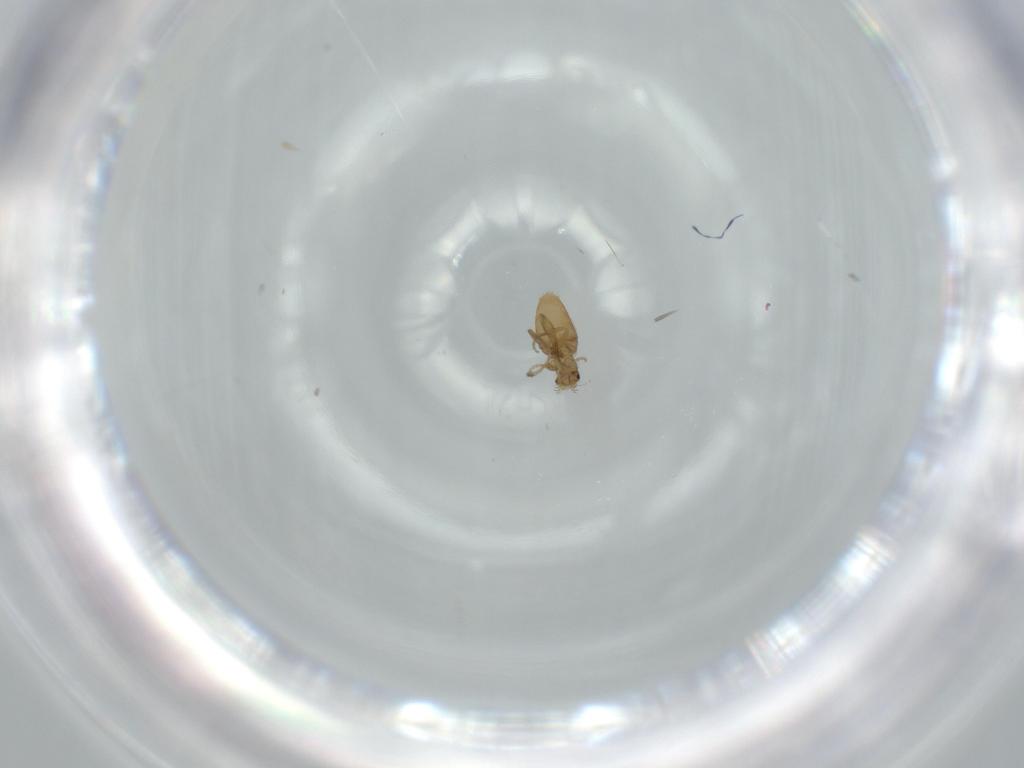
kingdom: Animalia
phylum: Arthropoda
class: Insecta
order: Diptera
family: Phoridae
